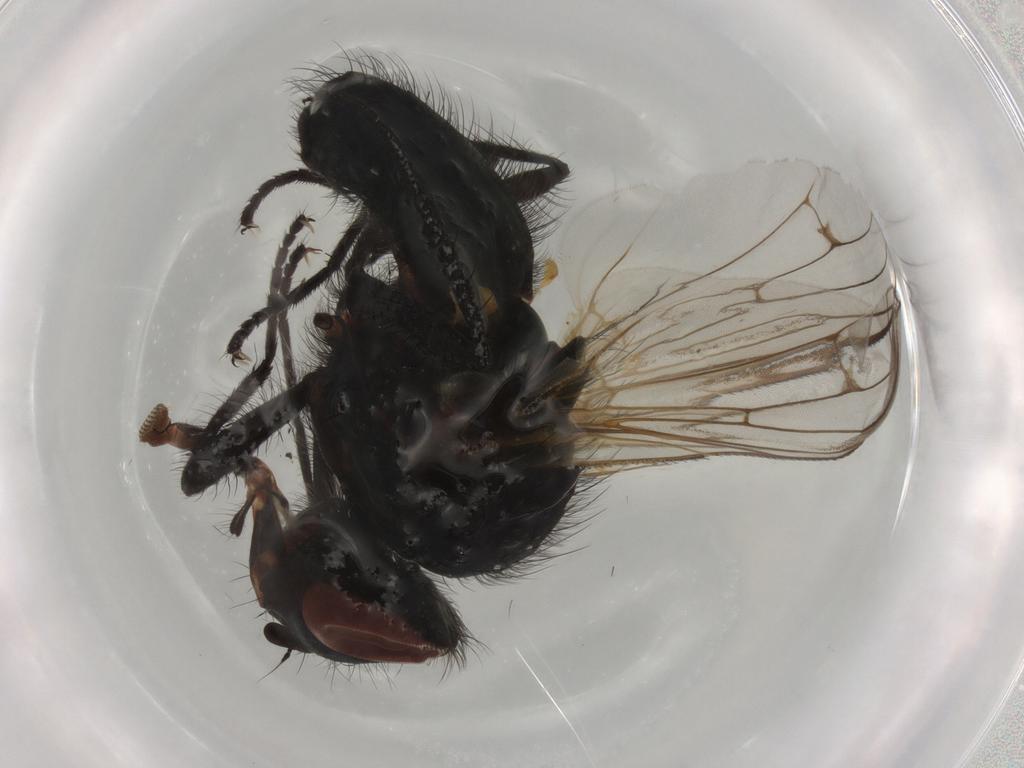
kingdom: Animalia
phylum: Arthropoda
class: Insecta
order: Diptera
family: Anthomyiidae
